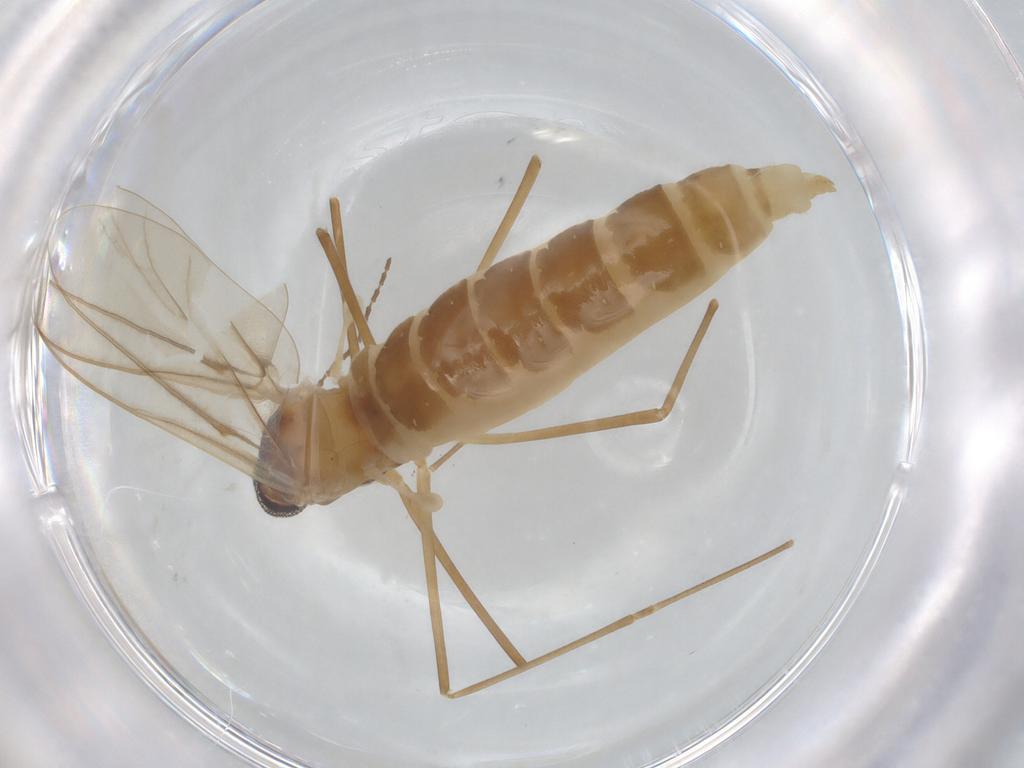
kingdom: Animalia
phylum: Arthropoda
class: Insecta
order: Diptera
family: Cecidomyiidae
